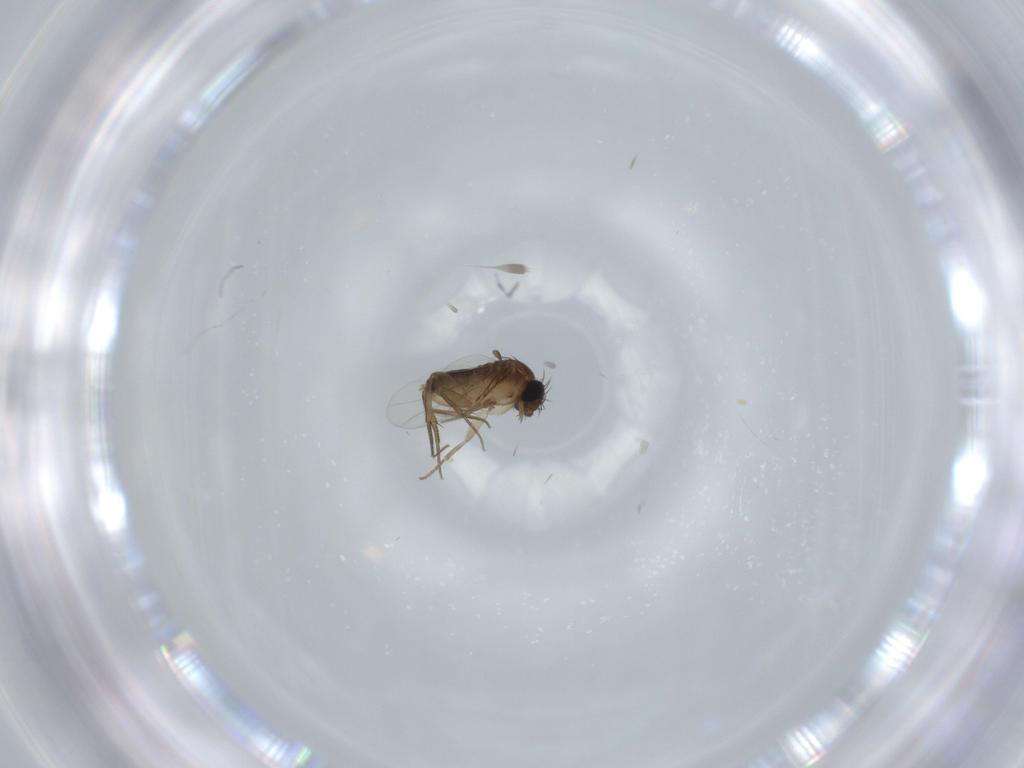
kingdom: Animalia
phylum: Arthropoda
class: Insecta
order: Diptera
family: Phoridae
